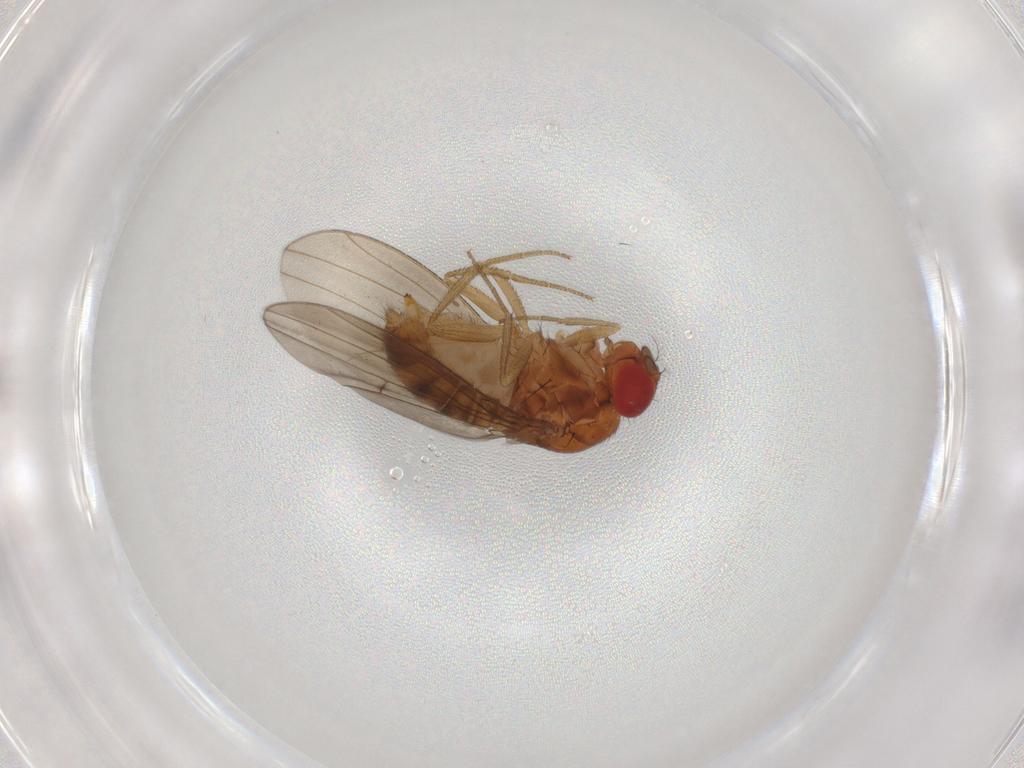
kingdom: Animalia
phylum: Arthropoda
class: Insecta
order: Diptera
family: Drosophilidae
